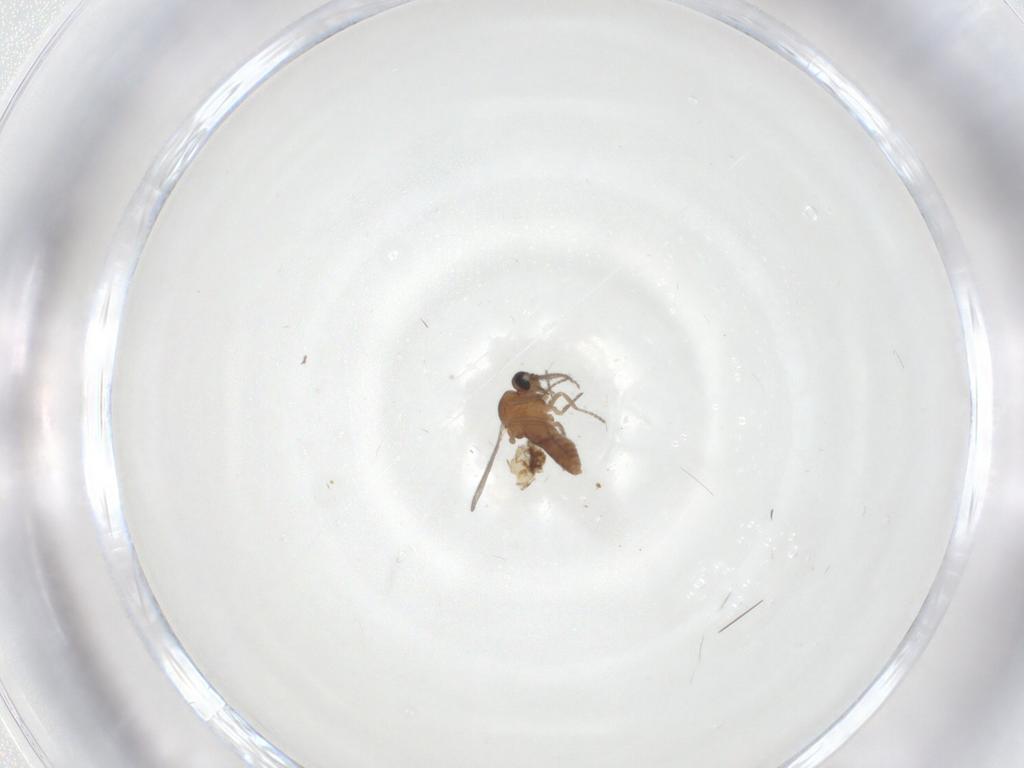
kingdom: Animalia
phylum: Arthropoda
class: Insecta
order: Diptera
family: Ceratopogonidae
